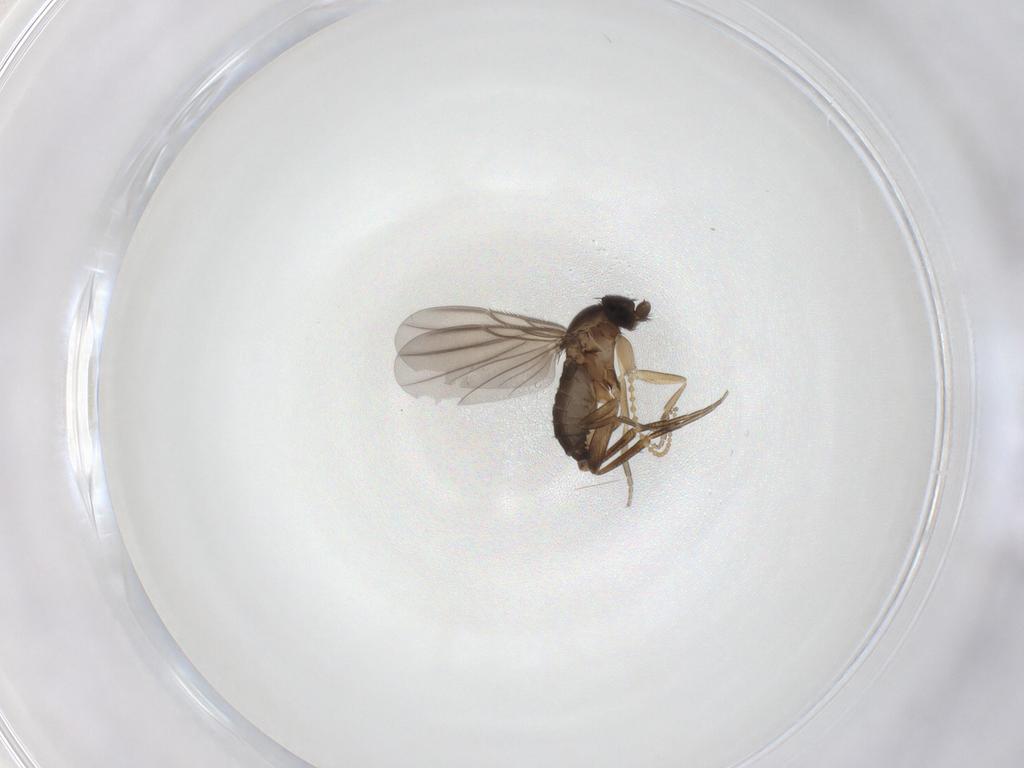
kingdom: Animalia
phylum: Arthropoda
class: Insecta
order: Diptera
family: Phoridae
